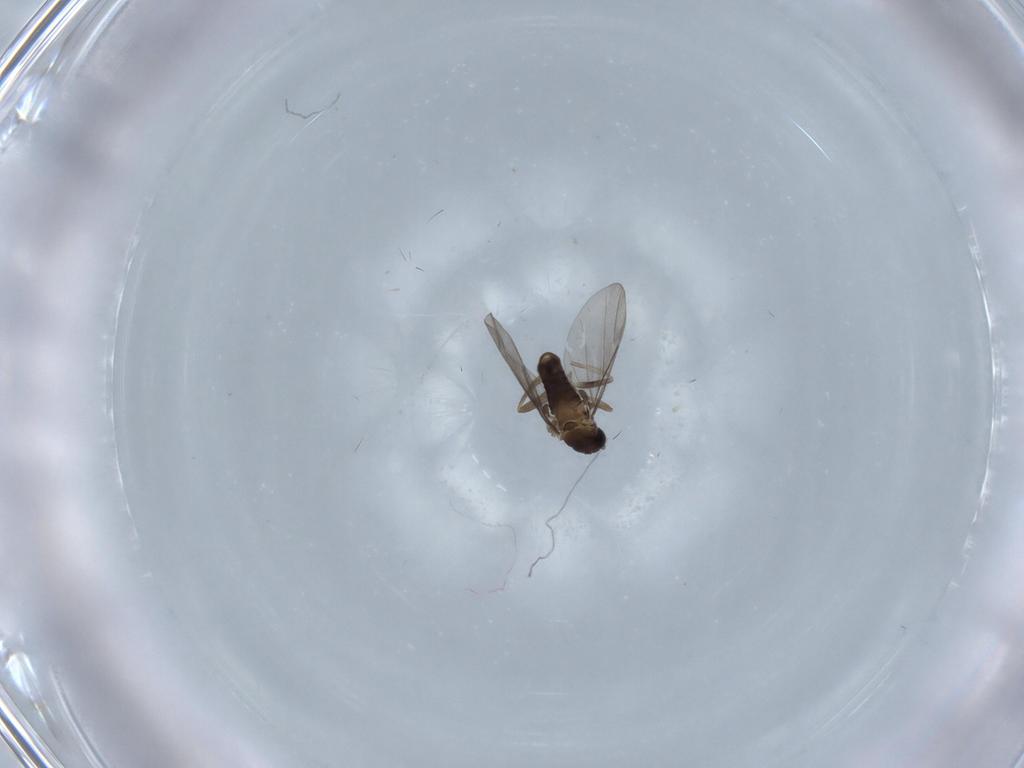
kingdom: Animalia
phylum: Arthropoda
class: Insecta
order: Diptera
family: Phoridae
